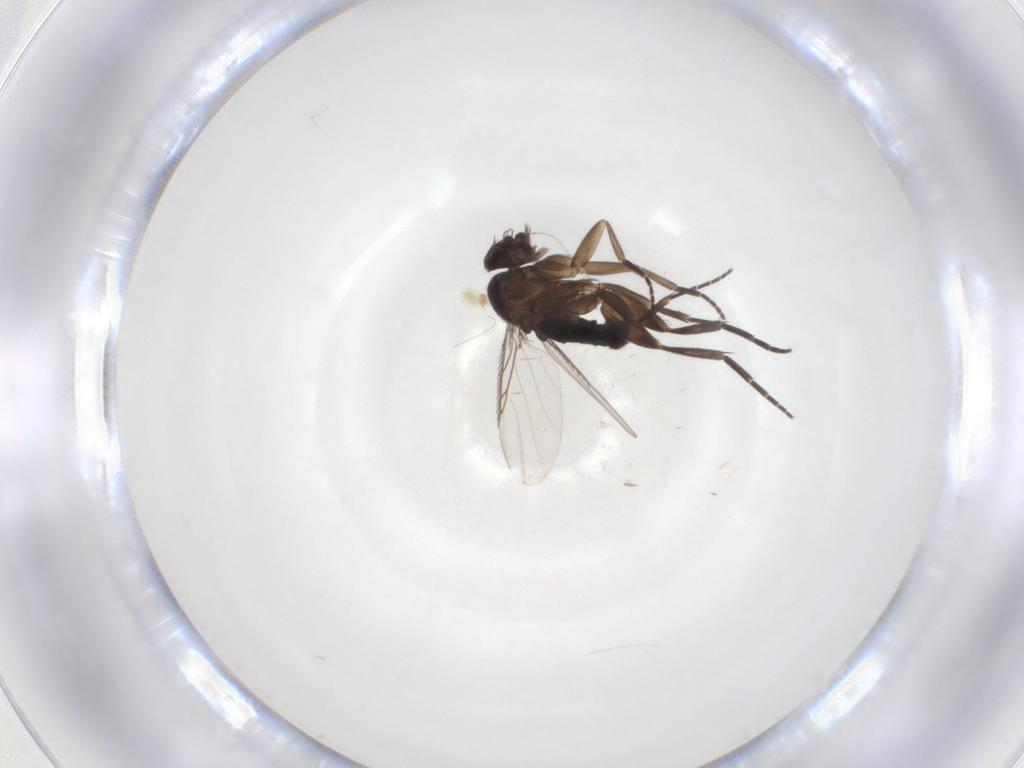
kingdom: Animalia
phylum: Arthropoda
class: Insecta
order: Diptera
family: Phoridae
